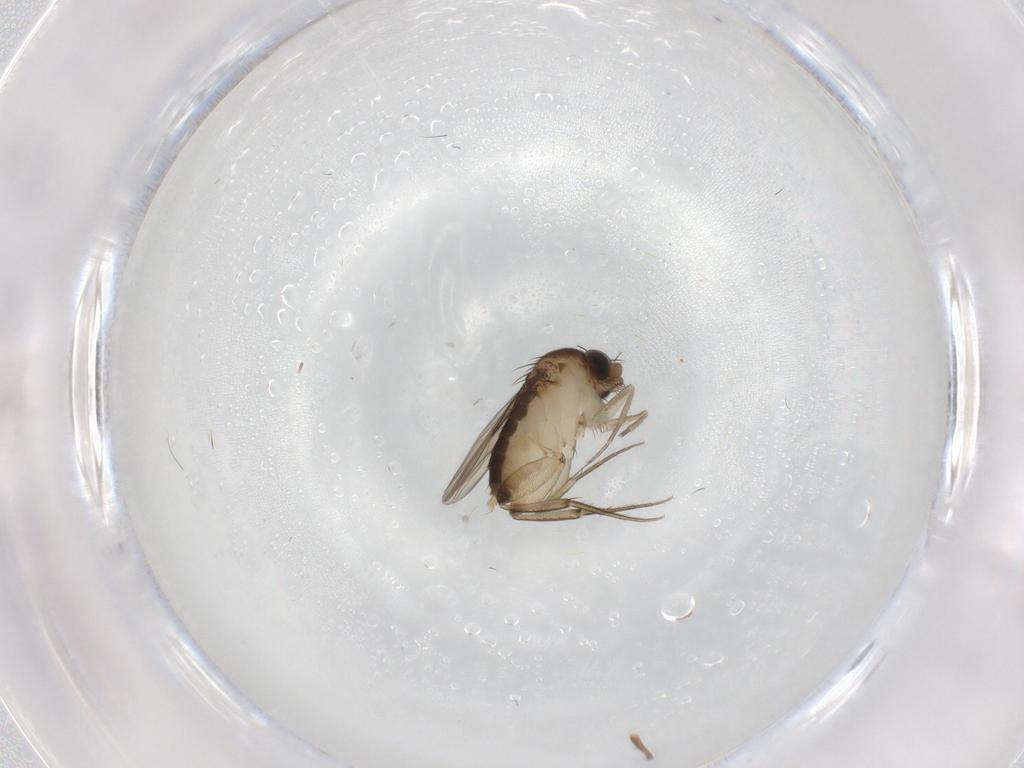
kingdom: Animalia
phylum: Arthropoda
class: Insecta
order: Diptera
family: Phoridae
